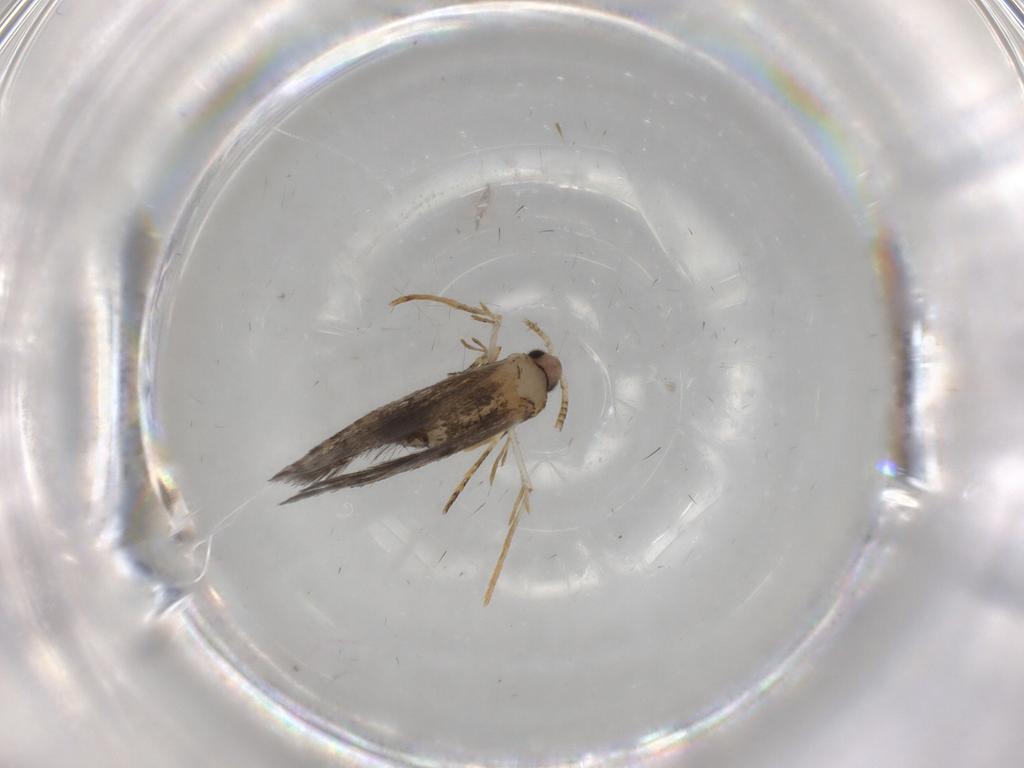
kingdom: Animalia
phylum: Arthropoda
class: Insecta
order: Lepidoptera
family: Tineidae
